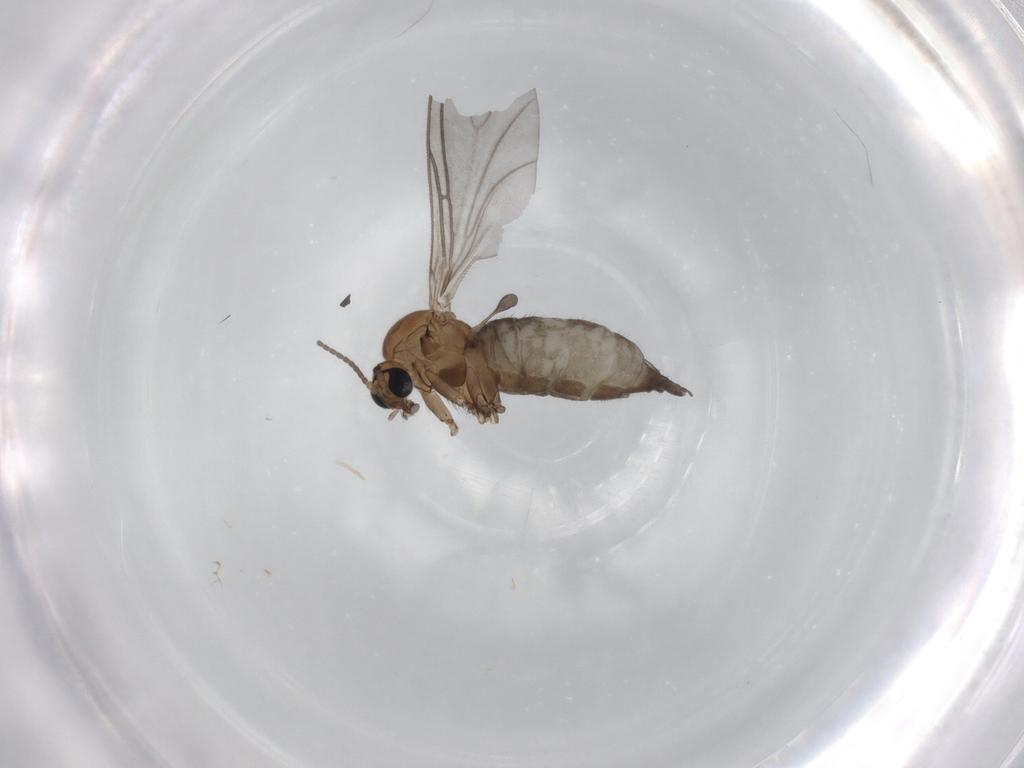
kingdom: Animalia
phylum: Arthropoda
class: Insecta
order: Diptera
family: Sciaridae
